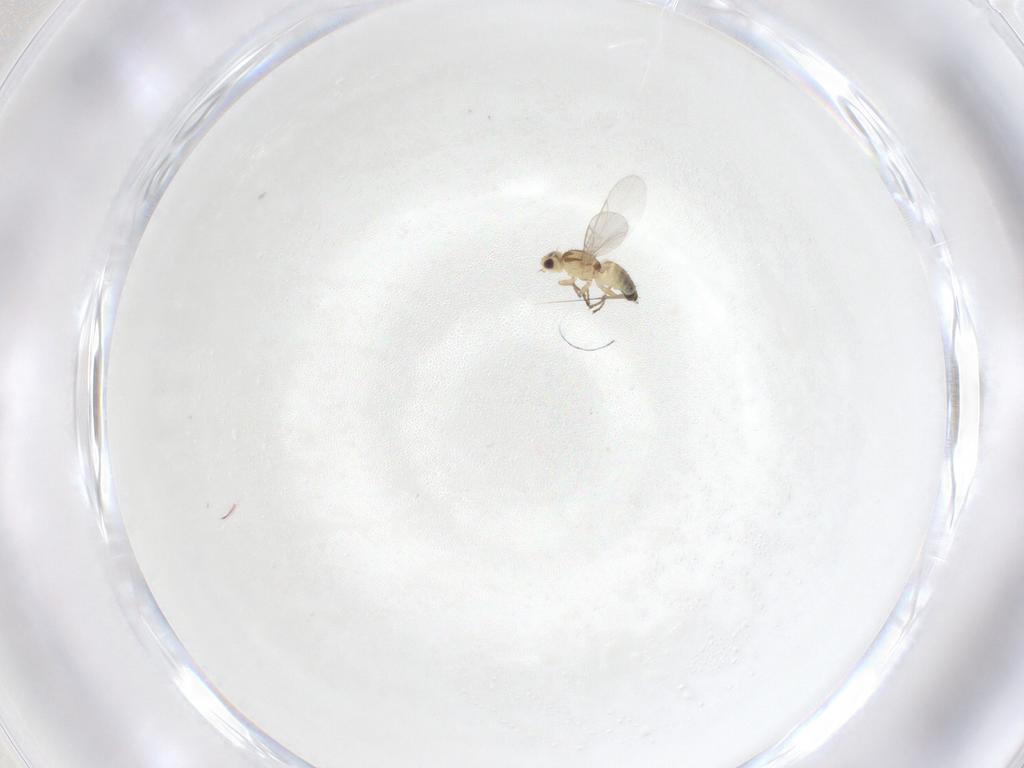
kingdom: Animalia
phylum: Arthropoda
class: Insecta
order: Diptera
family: Agromyzidae
